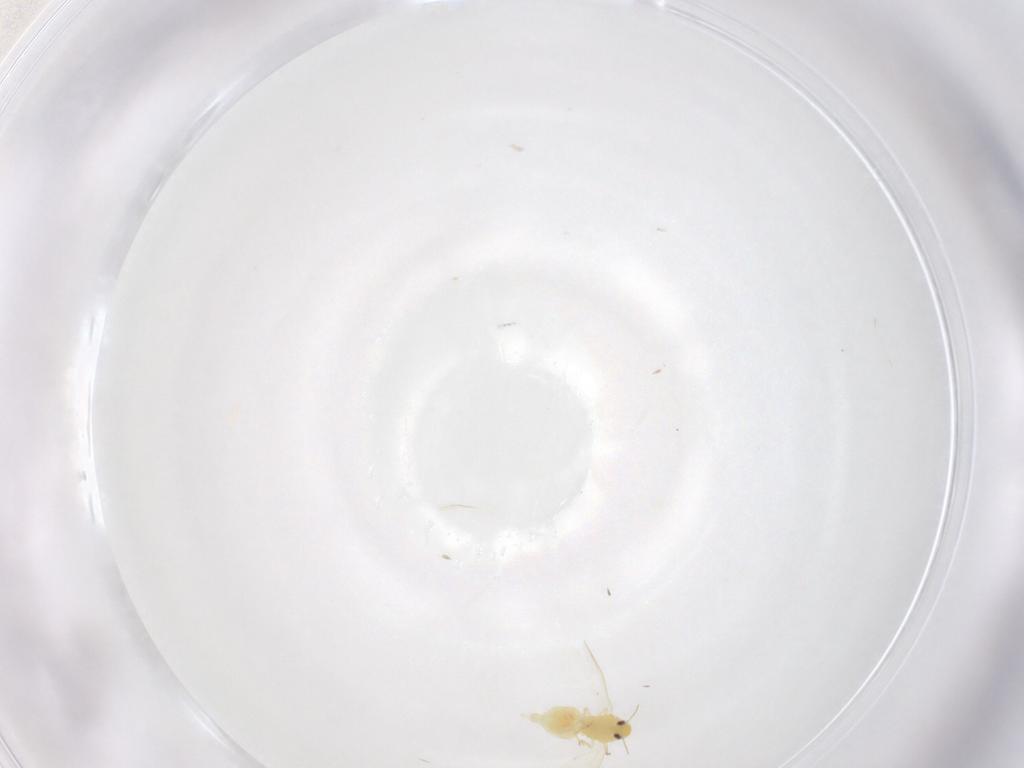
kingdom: Animalia
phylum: Arthropoda
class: Insecta
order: Hemiptera
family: Aleyrodidae
